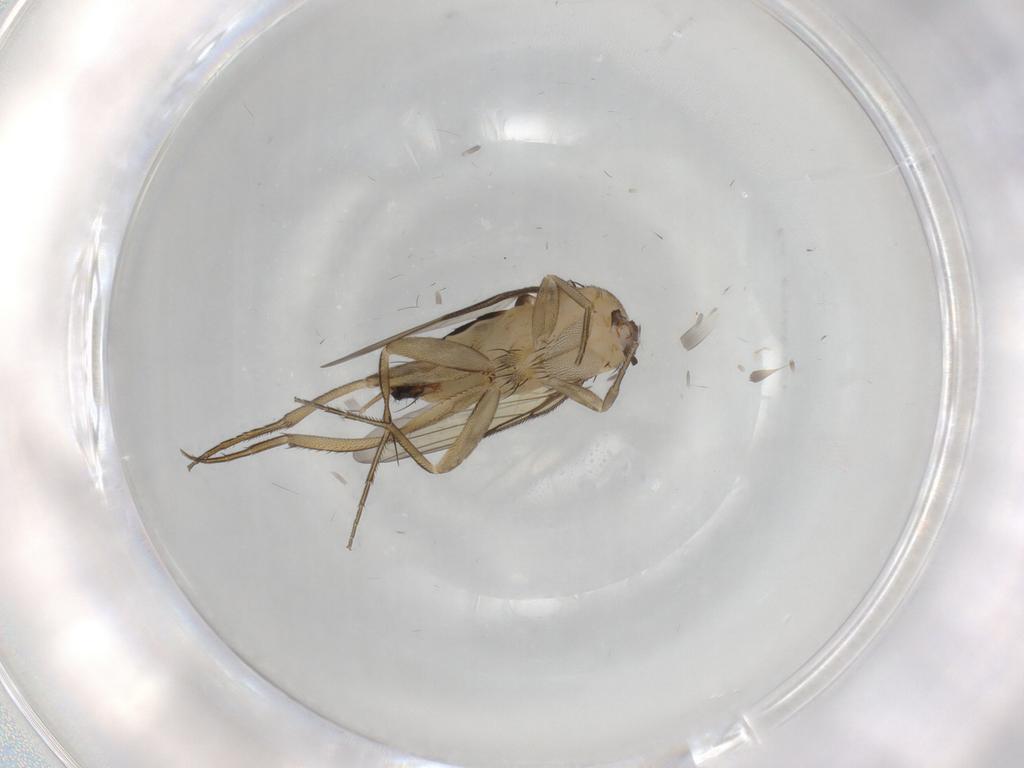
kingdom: Animalia
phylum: Arthropoda
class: Insecta
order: Diptera
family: Phoridae
